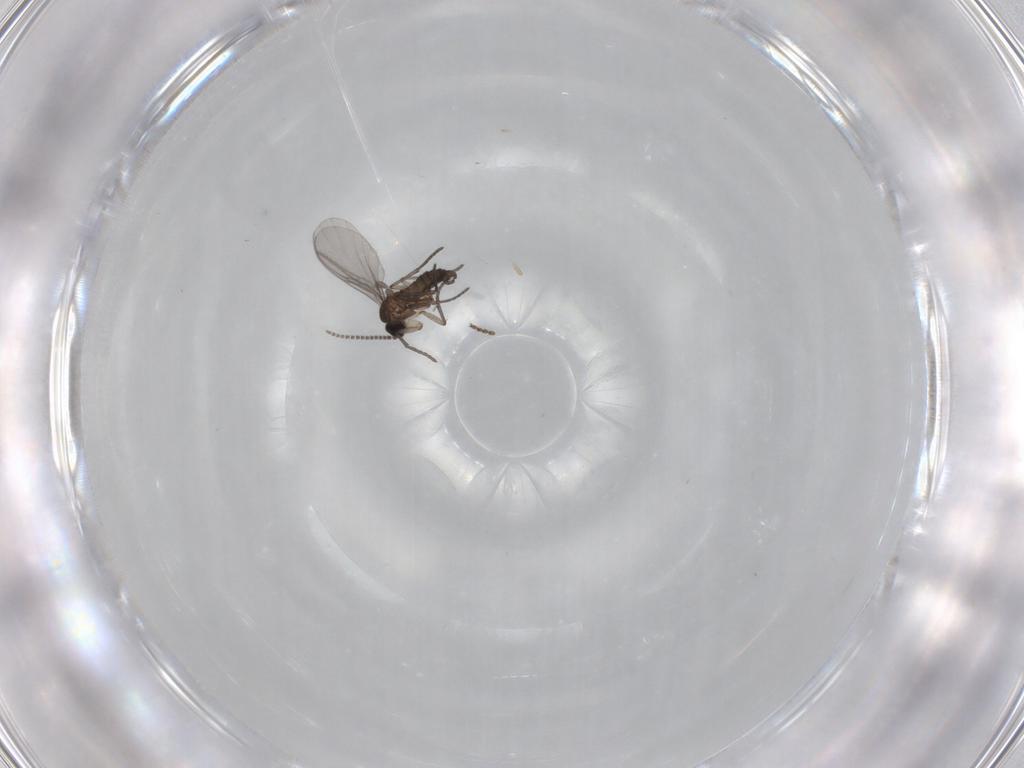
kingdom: Animalia
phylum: Arthropoda
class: Insecta
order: Diptera
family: Ceratopogonidae
